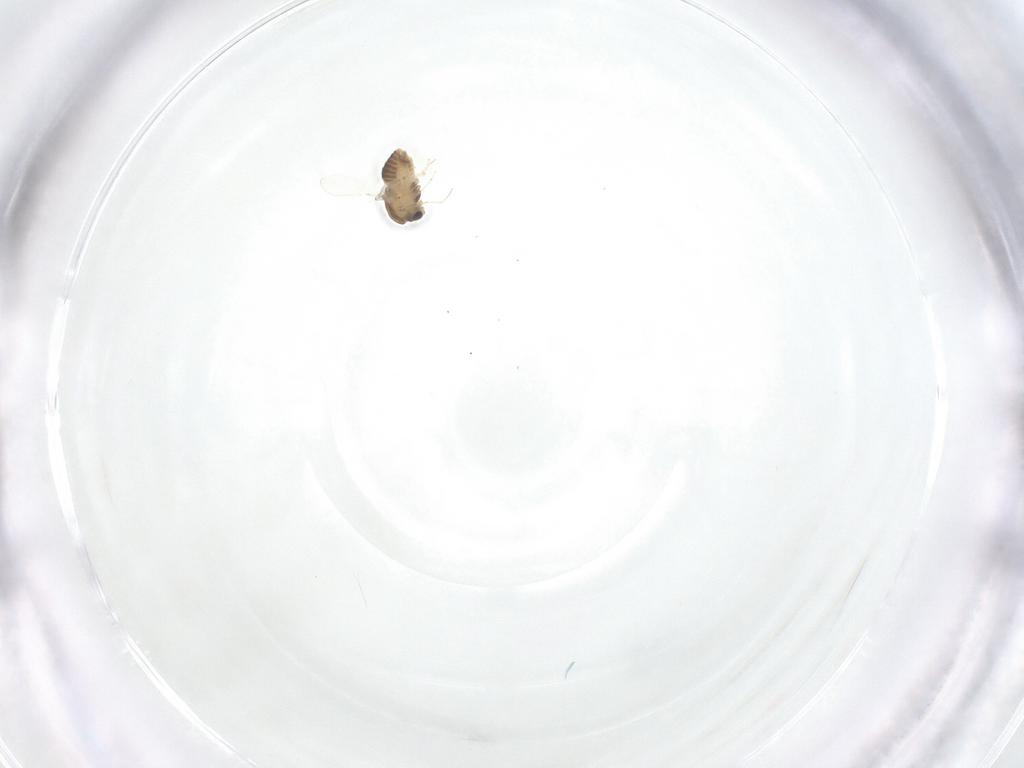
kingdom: Animalia
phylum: Arthropoda
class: Insecta
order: Diptera
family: Chironomidae
